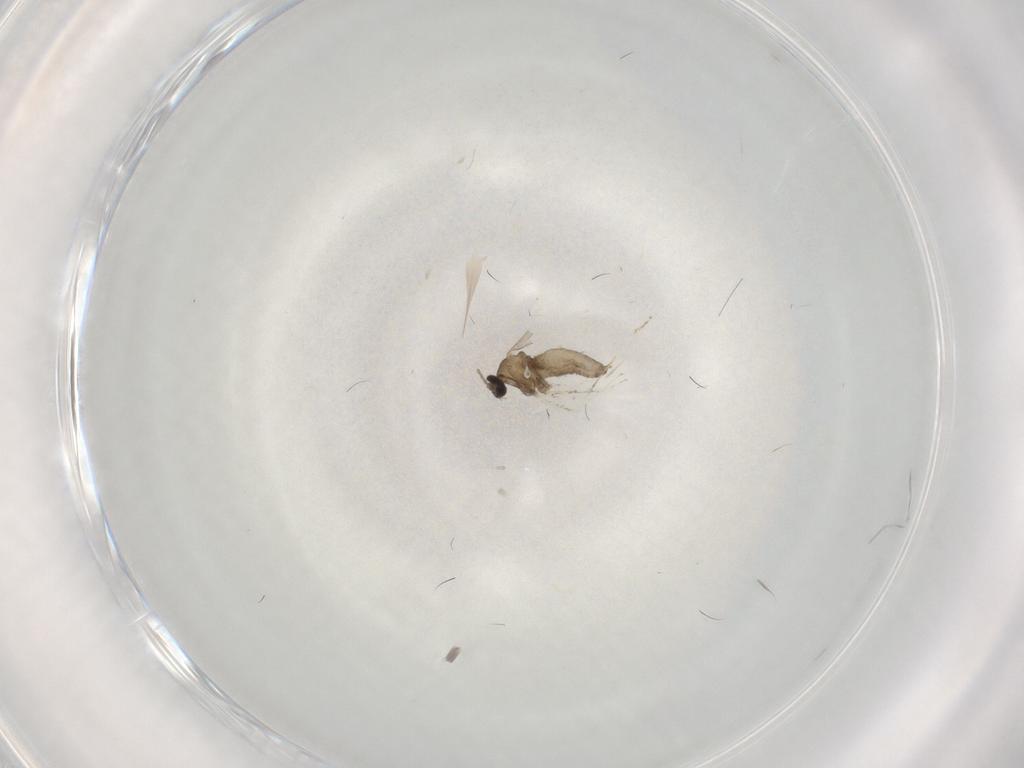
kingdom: Animalia
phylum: Arthropoda
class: Insecta
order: Diptera
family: Cecidomyiidae
